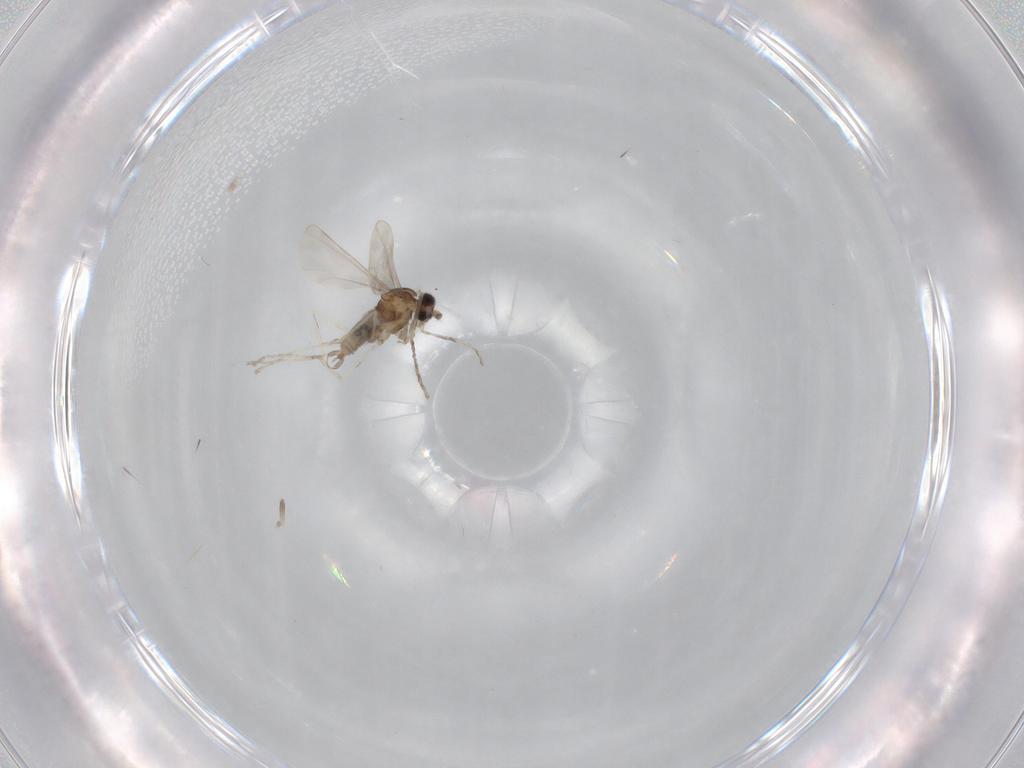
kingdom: Animalia
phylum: Arthropoda
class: Insecta
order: Diptera
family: Cecidomyiidae
